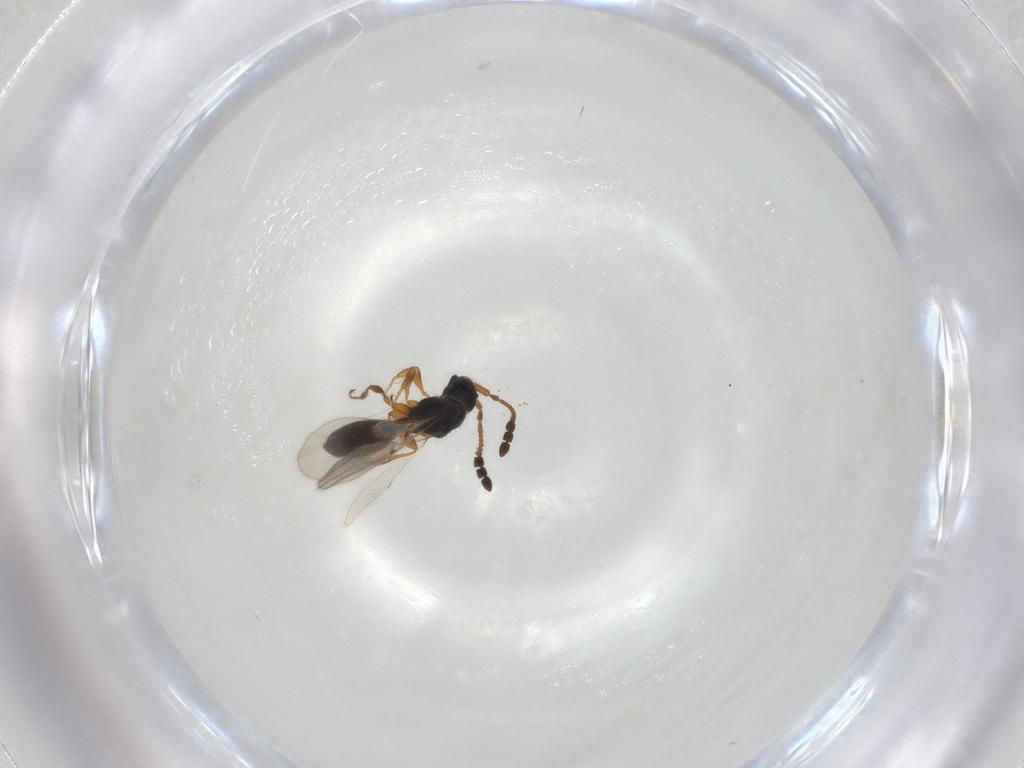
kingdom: Animalia
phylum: Arthropoda
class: Insecta
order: Hymenoptera
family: Diapriidae
